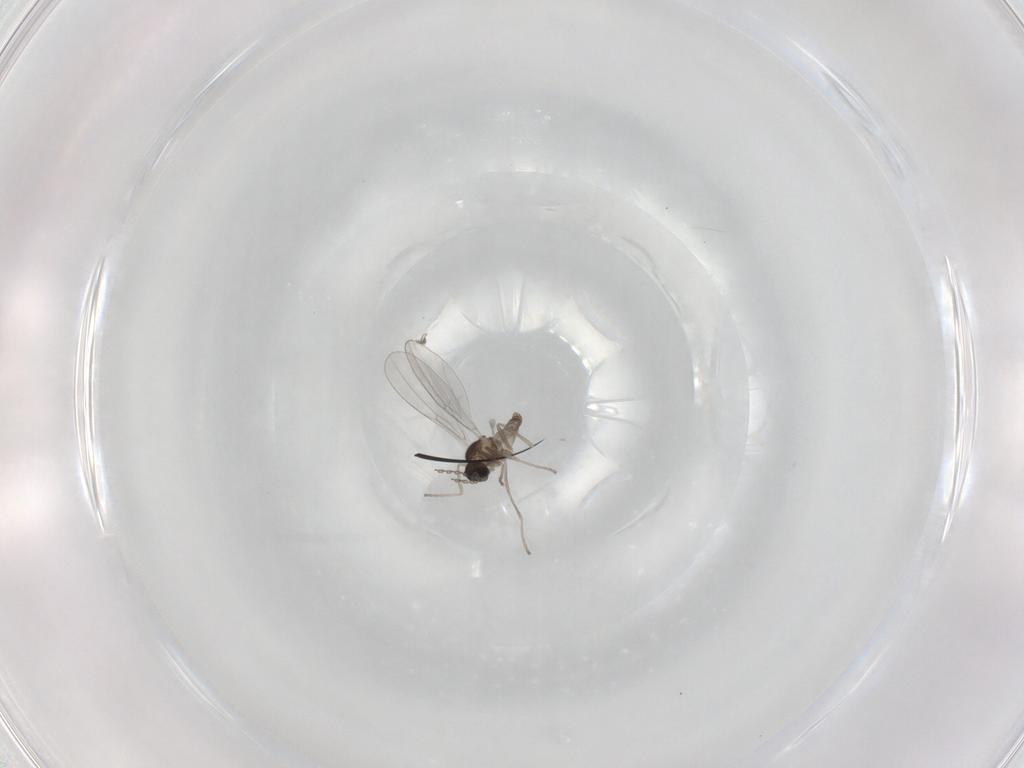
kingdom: Animalia
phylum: Arthropoda
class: Insecta
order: Diptera
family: Cecidomyiidae
